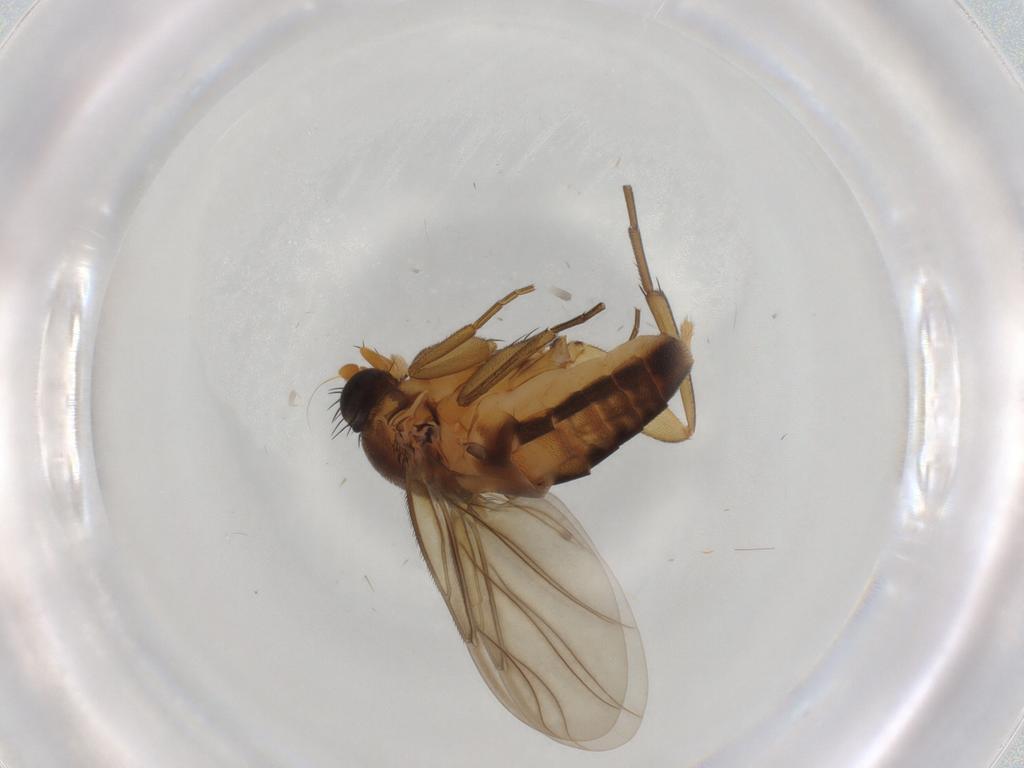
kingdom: Animalia
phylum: Arthropoda
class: Insecta
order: Diptera
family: Phoridae
